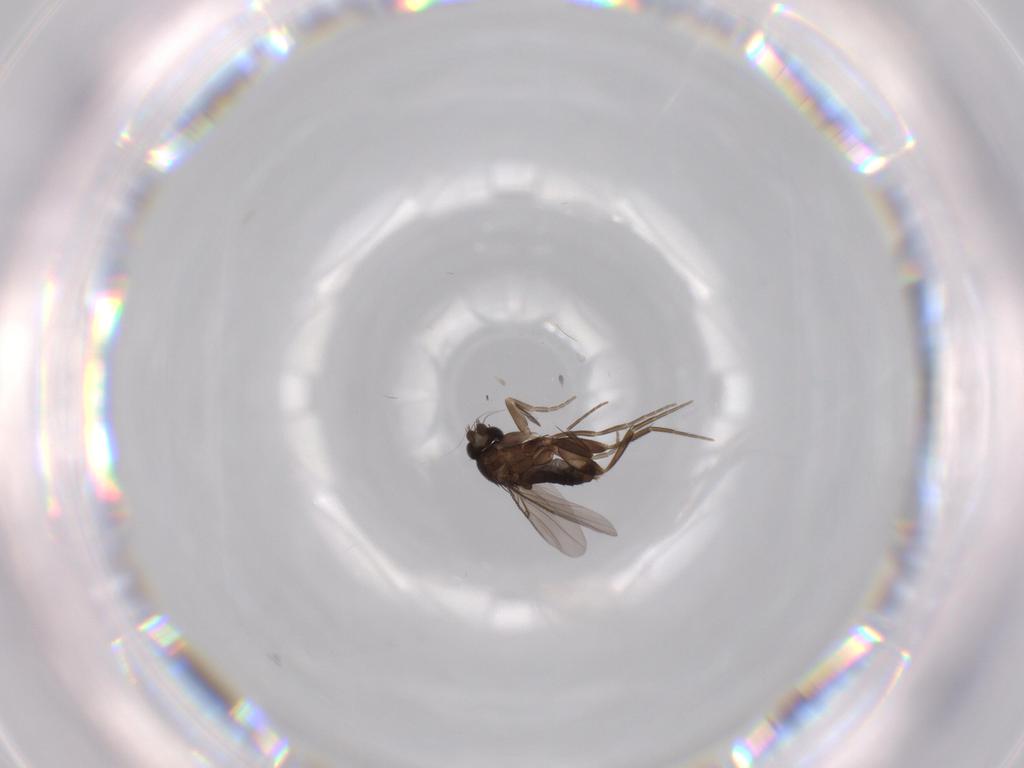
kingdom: Animalia
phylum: Arthropoda
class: Insecta
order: Diptera
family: Phoridae
